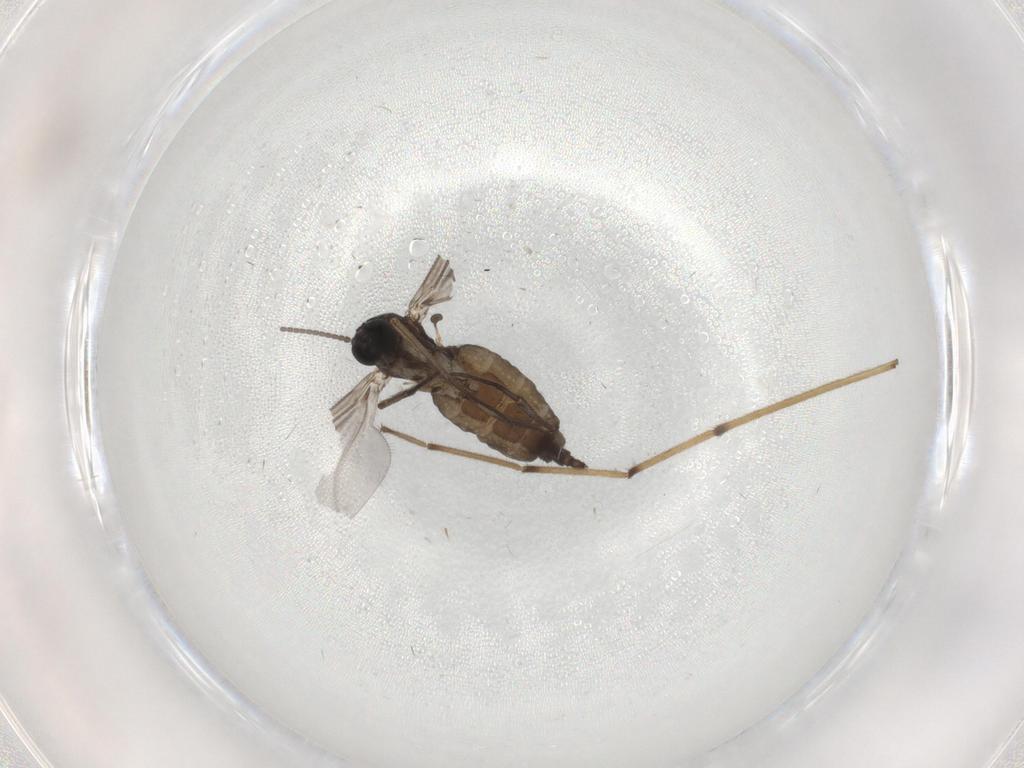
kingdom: Animalia
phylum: Arthropoda
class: Insecta
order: Diptera
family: Sciaridae
